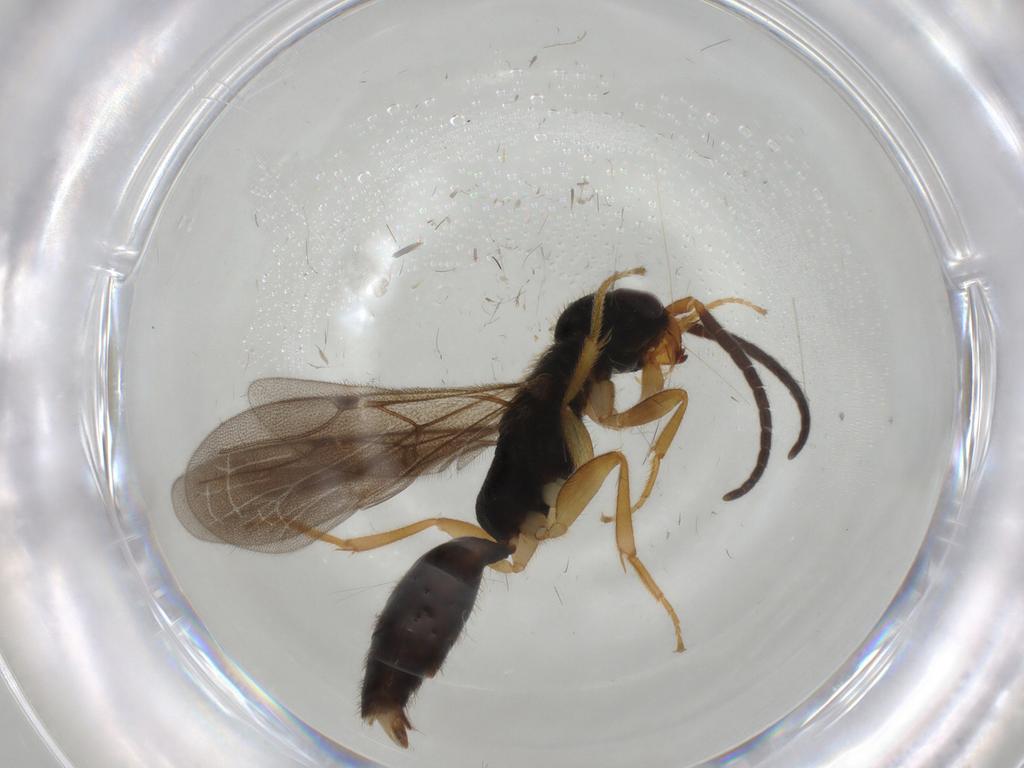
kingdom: Animalia
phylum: Arthropoda
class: Insecta
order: Hymenoptera
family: Bethylidae
